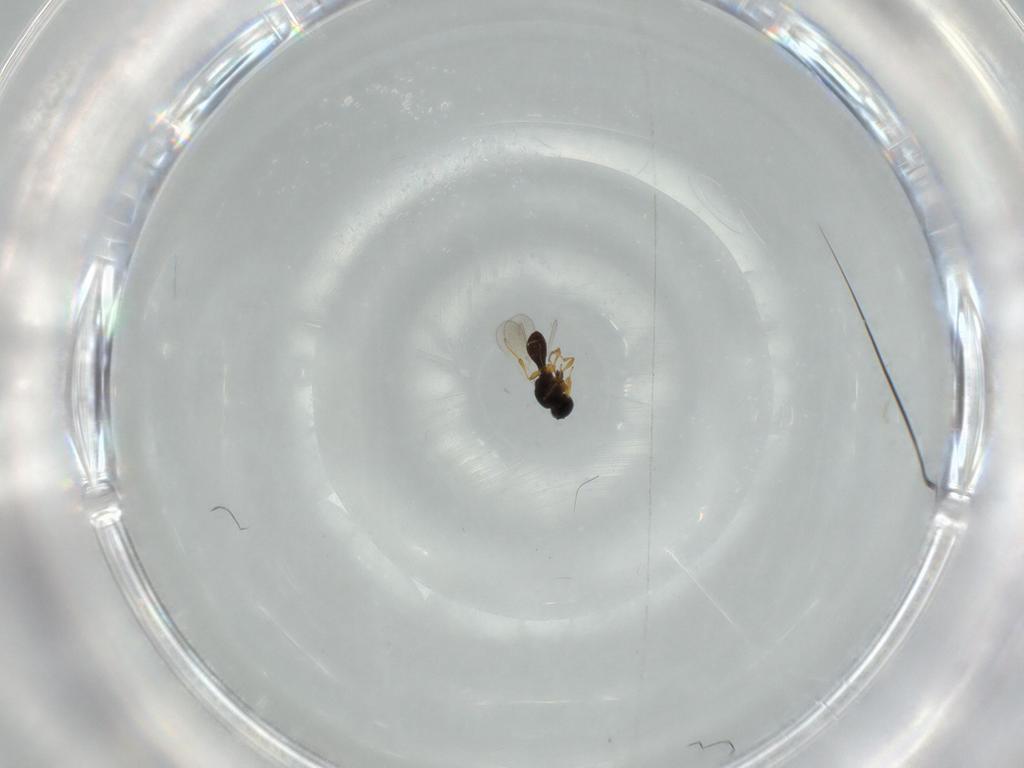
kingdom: Animalia
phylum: Arthropoda
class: Insecta
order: Hymenoptera
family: Platygastridae
